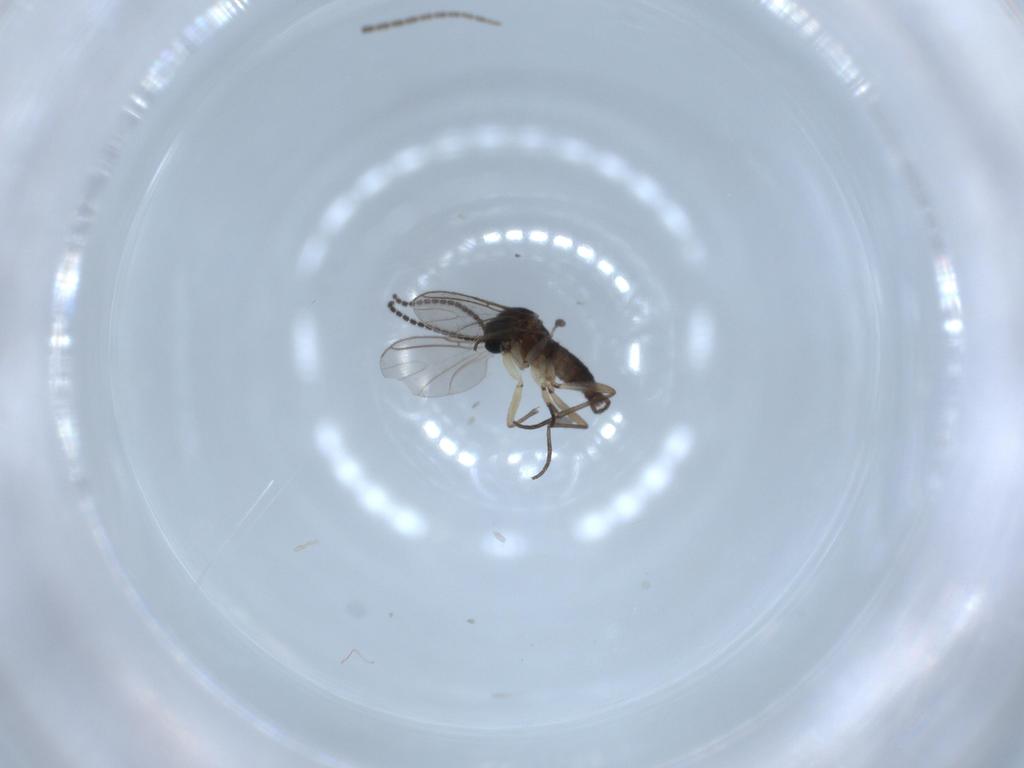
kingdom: Animalia
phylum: Arthropoda
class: Insecta
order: Diptera
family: Sciaridae
